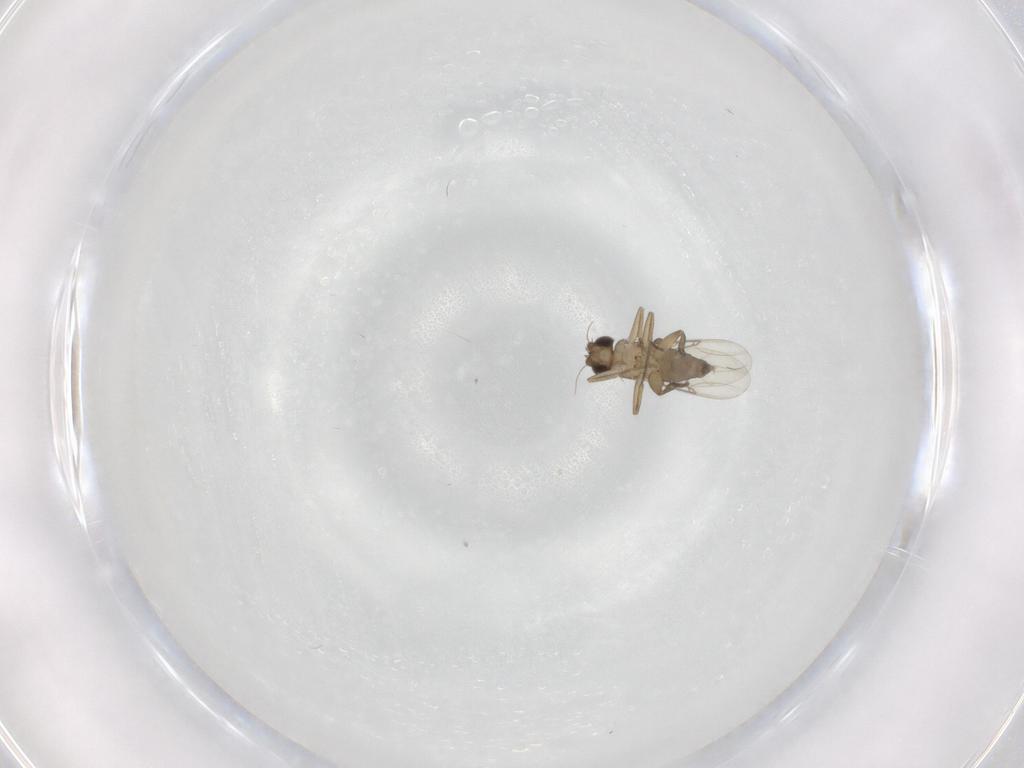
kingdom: Animalia
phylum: Arthropoda
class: Insecta
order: Diptera
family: Phoridae
